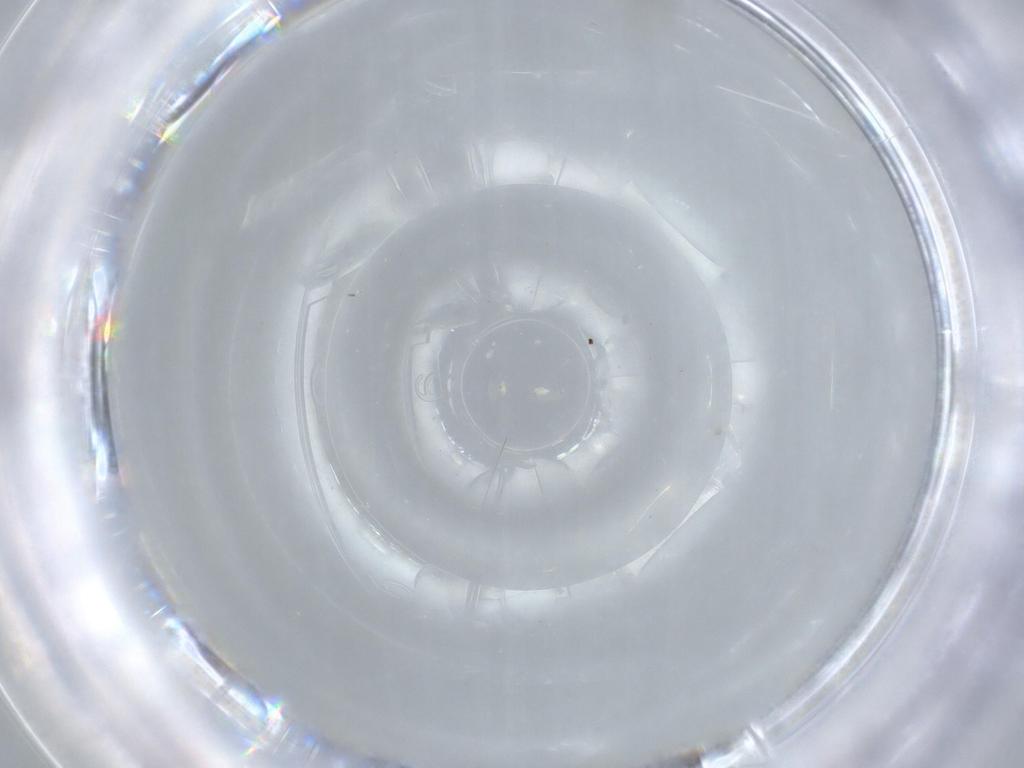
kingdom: Animalia
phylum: Arthropoda
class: Insecta
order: Diptera
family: Sciaridae
